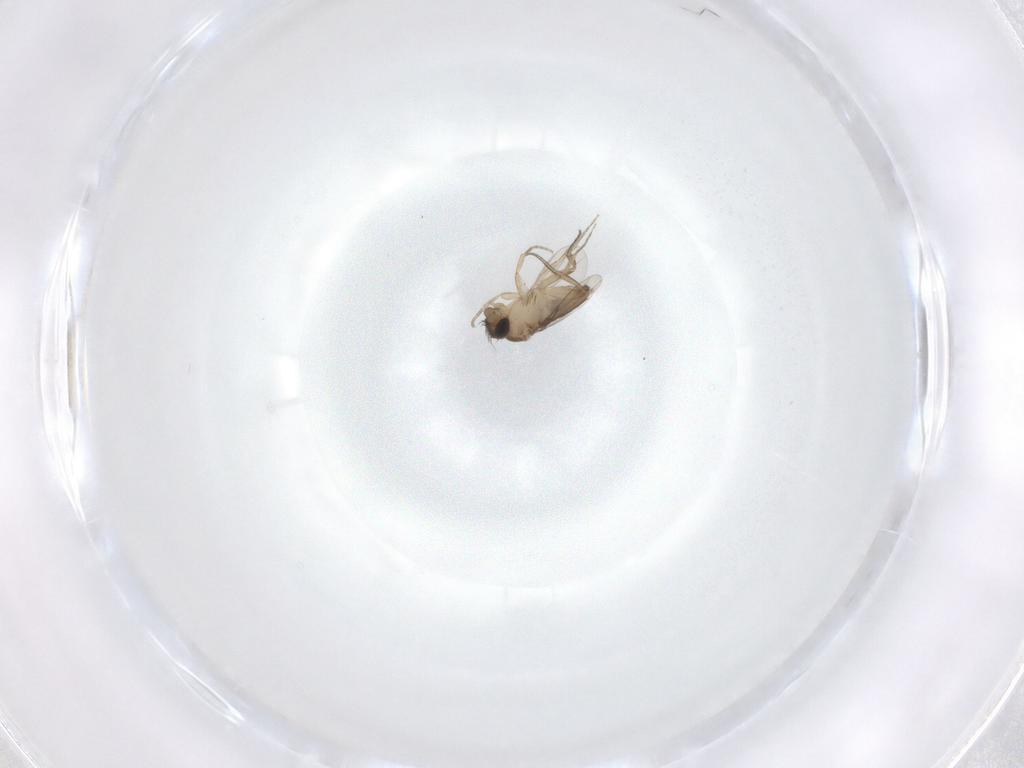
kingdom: Animalia
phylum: Arthropoda
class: Insecta
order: Diptera
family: Phoridae
